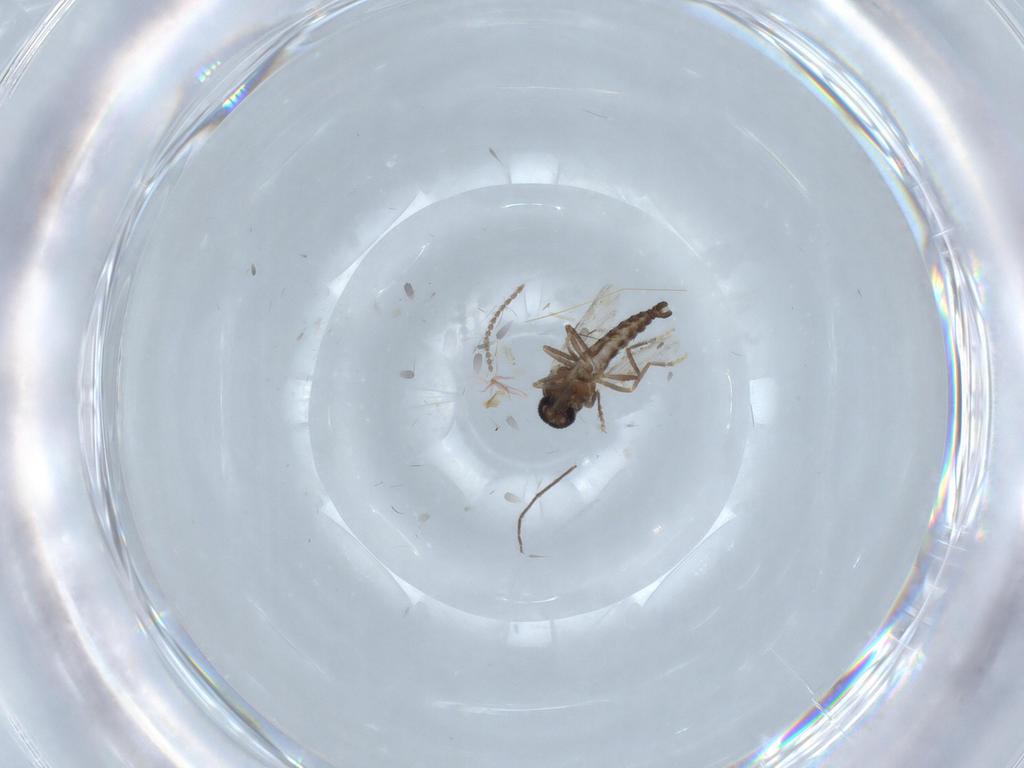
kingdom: Animalia
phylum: Arthropoda
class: Insecta
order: Diptera
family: Ceratopogonidae
